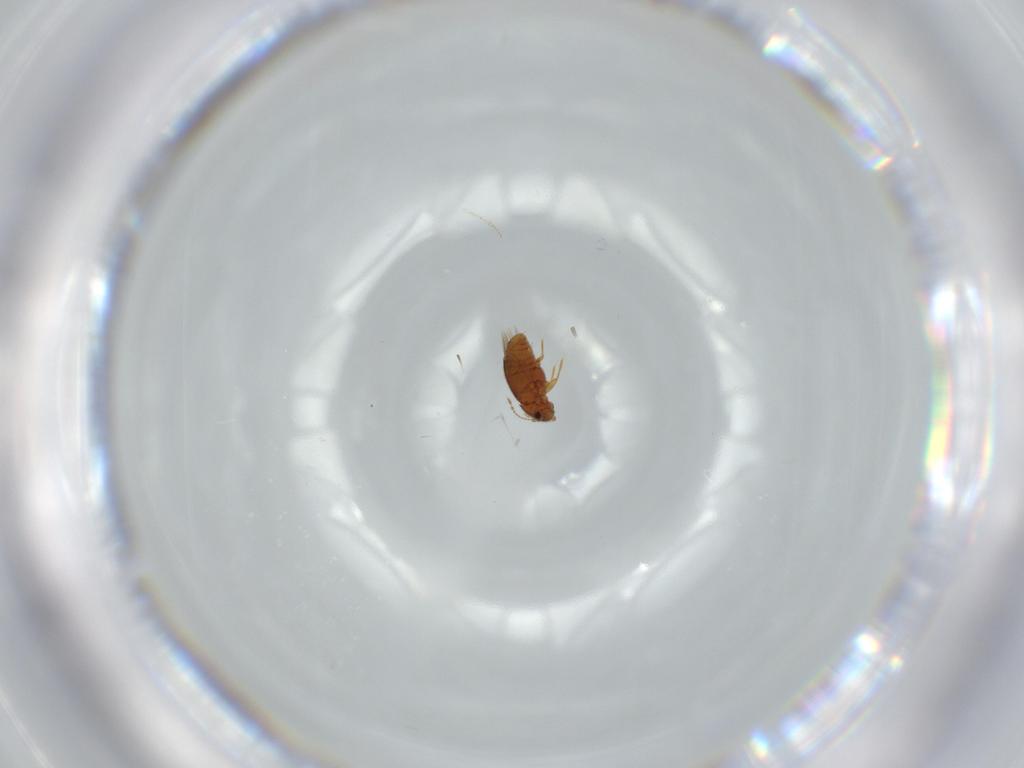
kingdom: Animalia
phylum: Arthropoda
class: Insecta
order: Coleoptera
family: Ptiliidae
